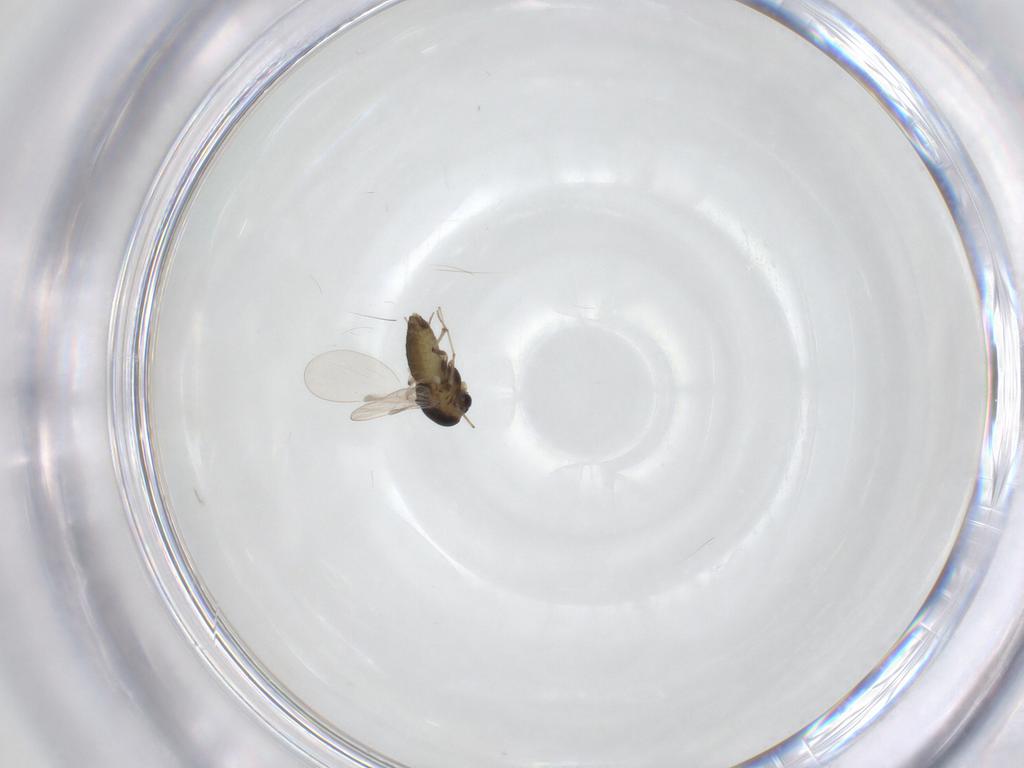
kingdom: Animalia
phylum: Arthropoda
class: Insecta
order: Diptera
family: Chironomidae
